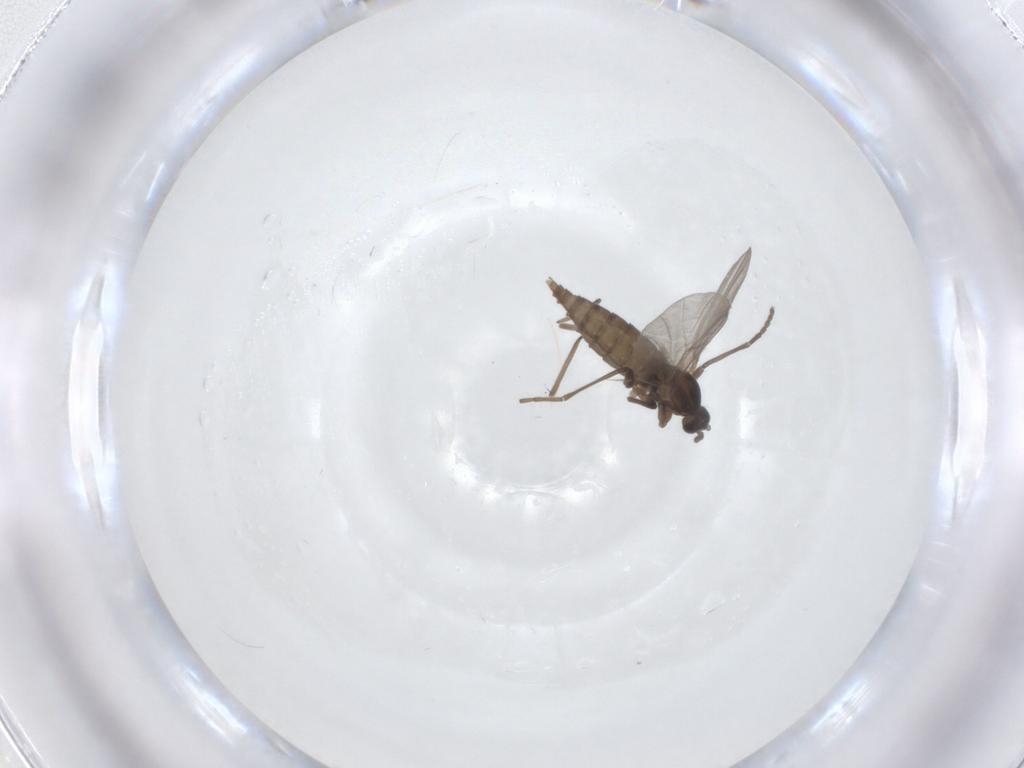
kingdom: Animalia
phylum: Arthropoda
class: Insecta
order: Diptera
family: Cecidomyiidae
